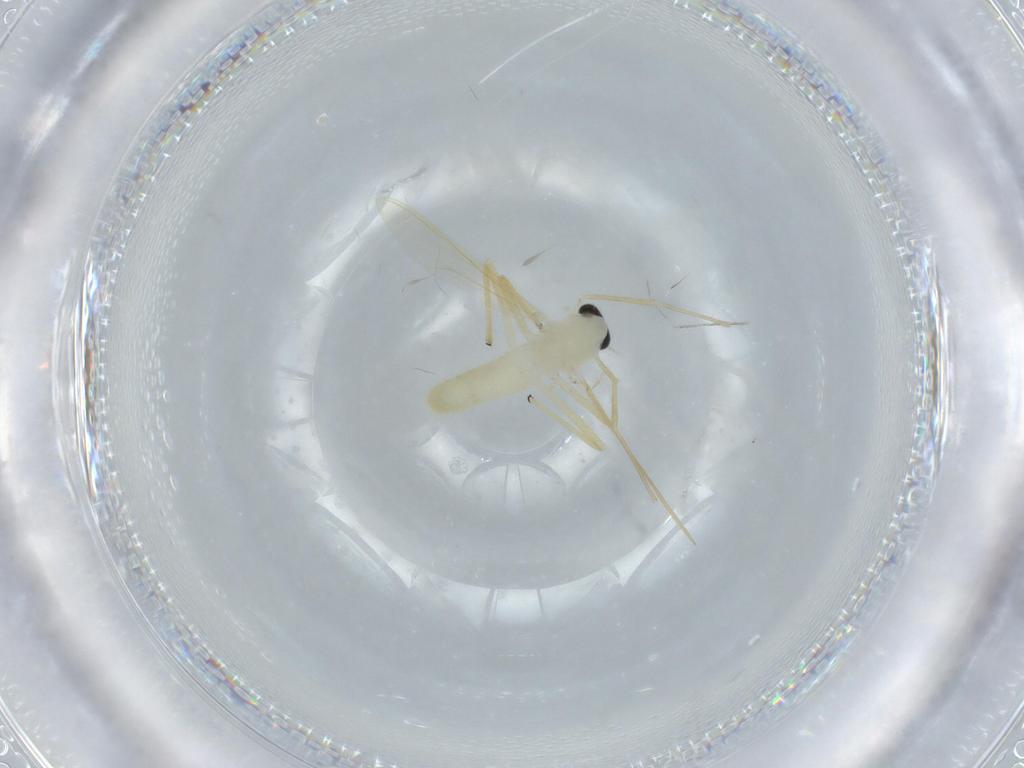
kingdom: Animalia
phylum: Arthropoda
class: Insecta
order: Diptera
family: Chironomidae
